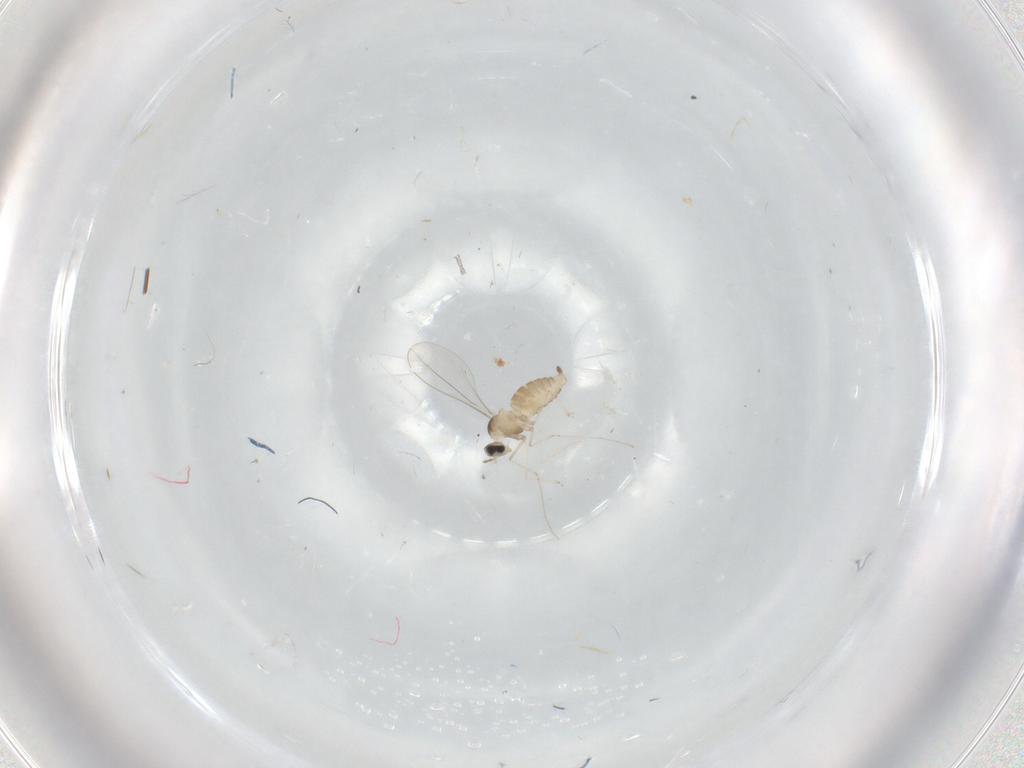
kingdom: Animalia
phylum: Arthropoda
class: Insecta
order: Diptera
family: Cecidomyiidae
